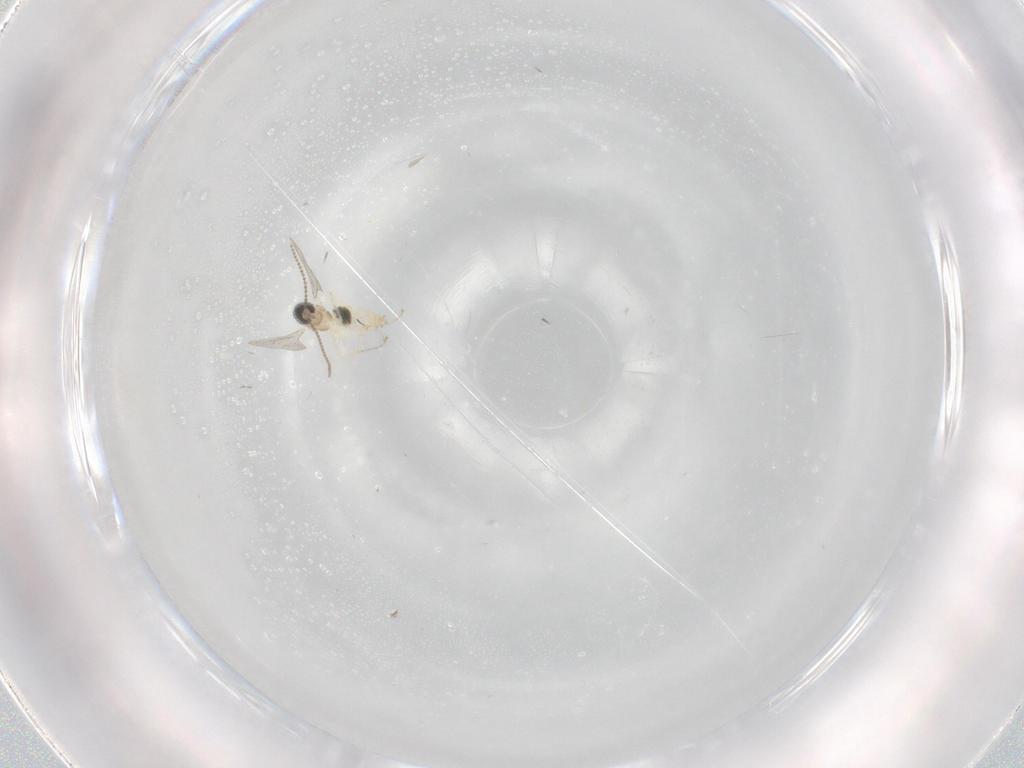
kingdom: Animalia
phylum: Arthropoda
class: Insecta
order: Diptera
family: Cecidomyiidae
